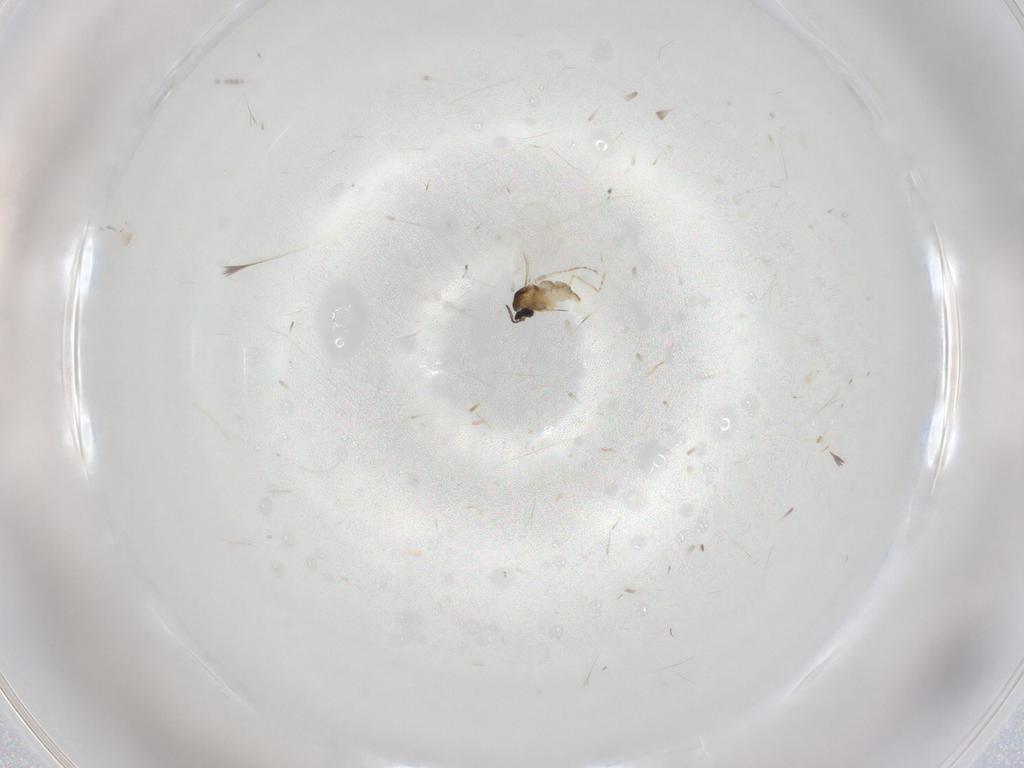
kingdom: Animalia
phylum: Arthropoda
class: Insecta
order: Diptera
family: Cecidomyiidae
